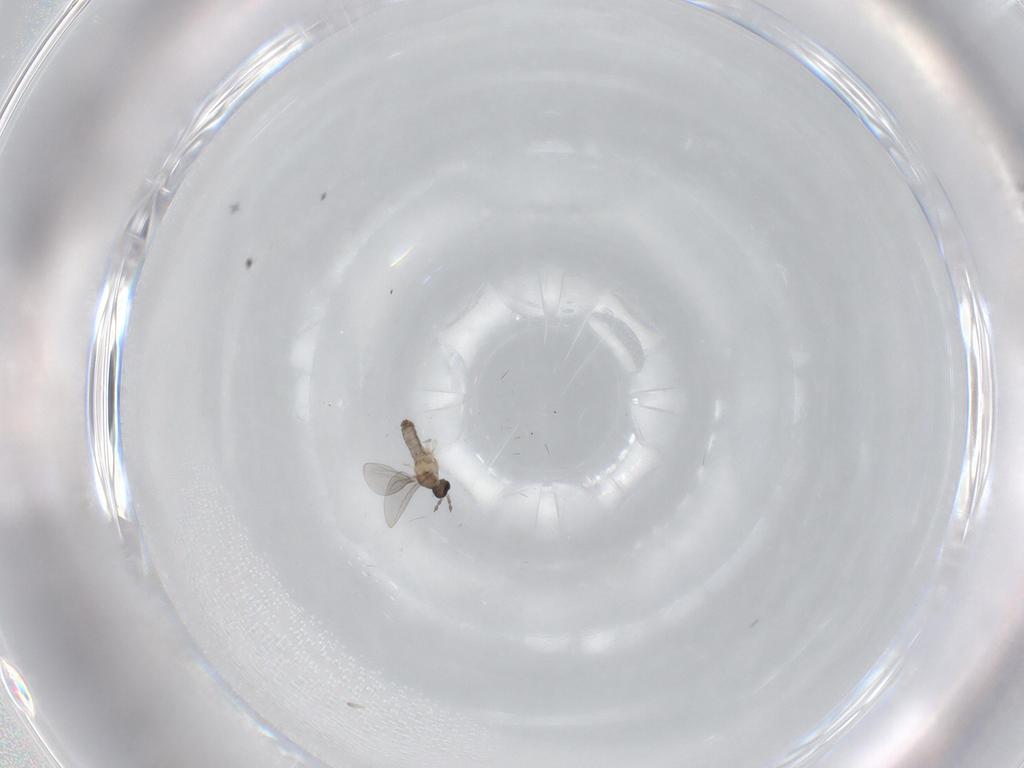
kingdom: Animalia
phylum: Arthropoda
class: Insecta
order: Diptera
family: Cecidomyiidae
